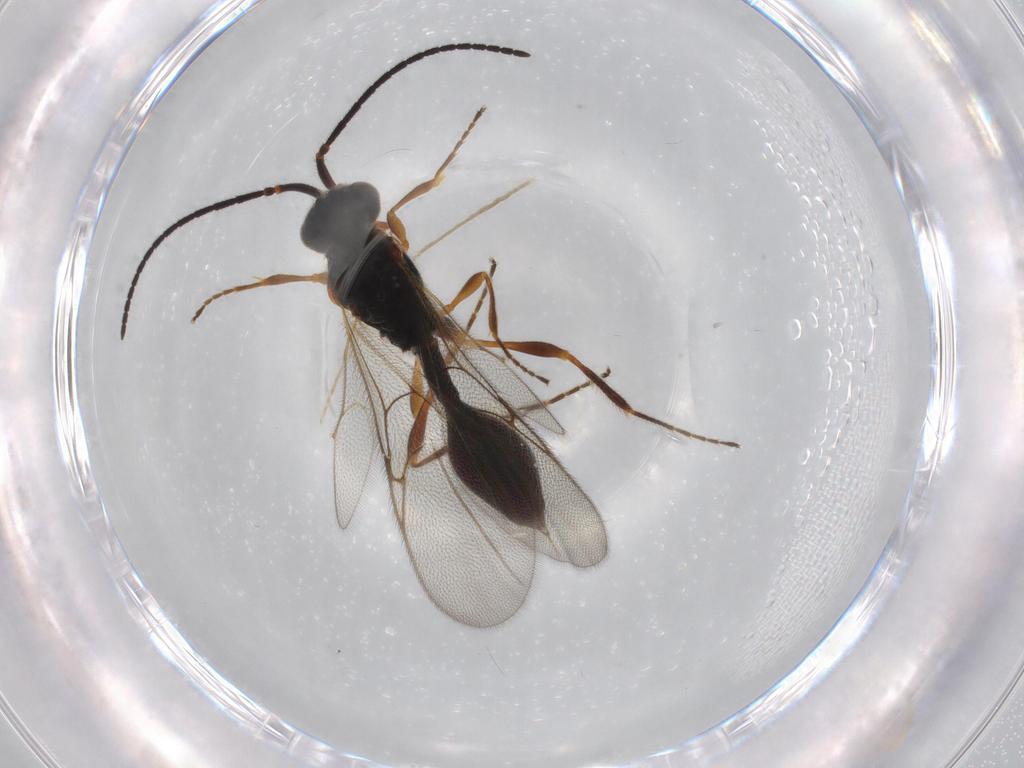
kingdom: Animalia
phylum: Arthropoda
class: Insecta
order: Hymenoptera
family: Diapriidae
